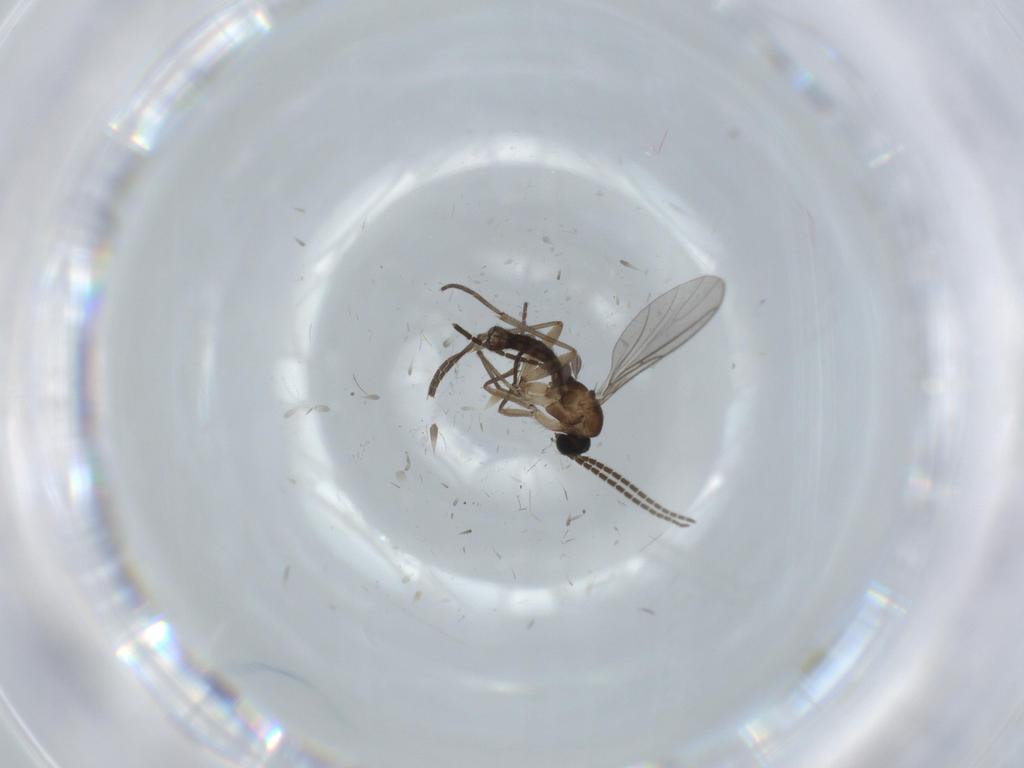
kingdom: Animalia
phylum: Arthropoda
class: Insecta
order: Diptera
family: Sciaridae
